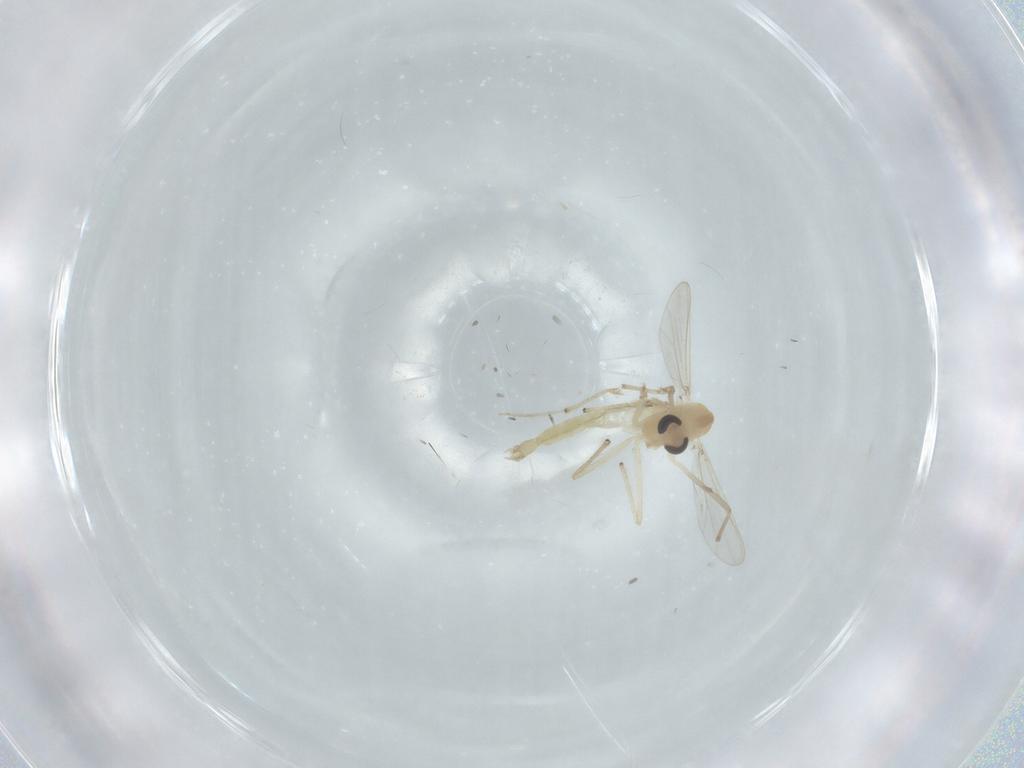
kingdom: Animalia
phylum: Arthropoda
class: Insecta
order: Diptera
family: Chironomidae
